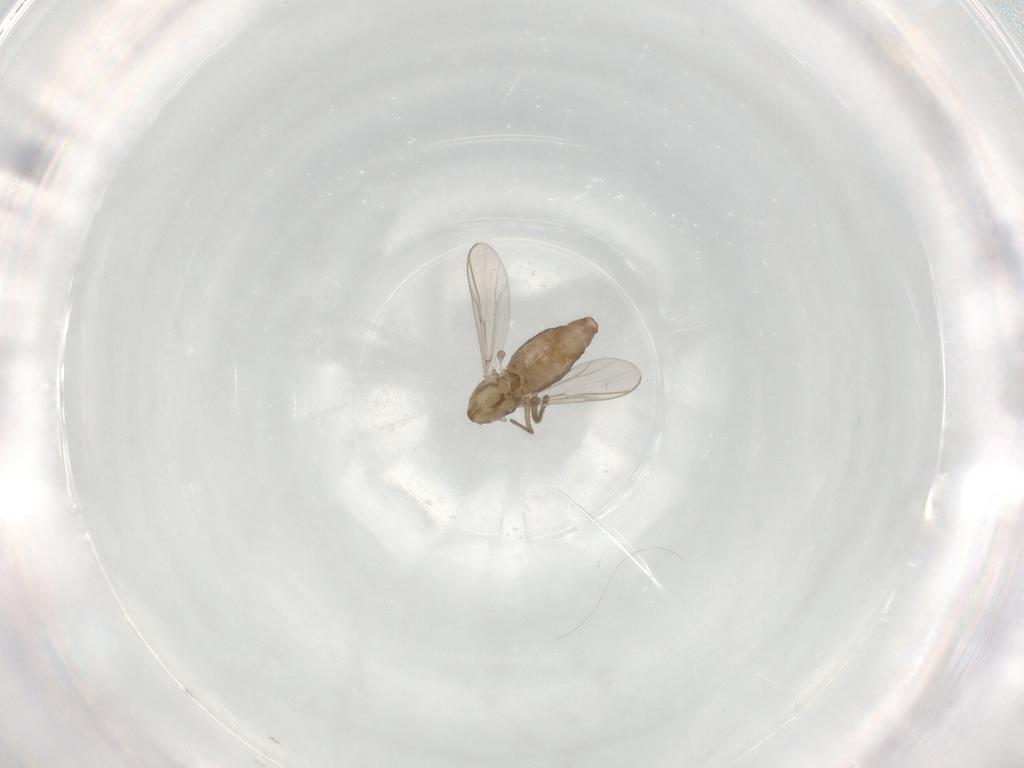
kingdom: Animalia
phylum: Arthropoda
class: Insecta
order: Diptera
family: Chironomidae
